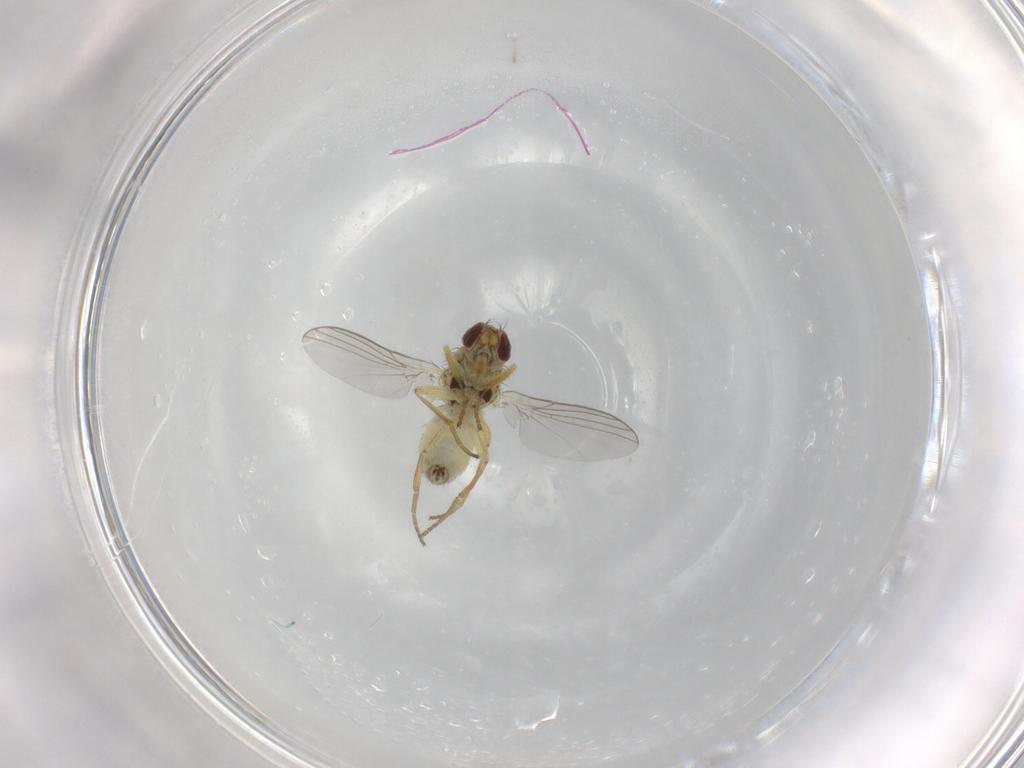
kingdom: Animalia
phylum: Arthropoda
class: Insecta
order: Diptera
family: Agromyzidae
